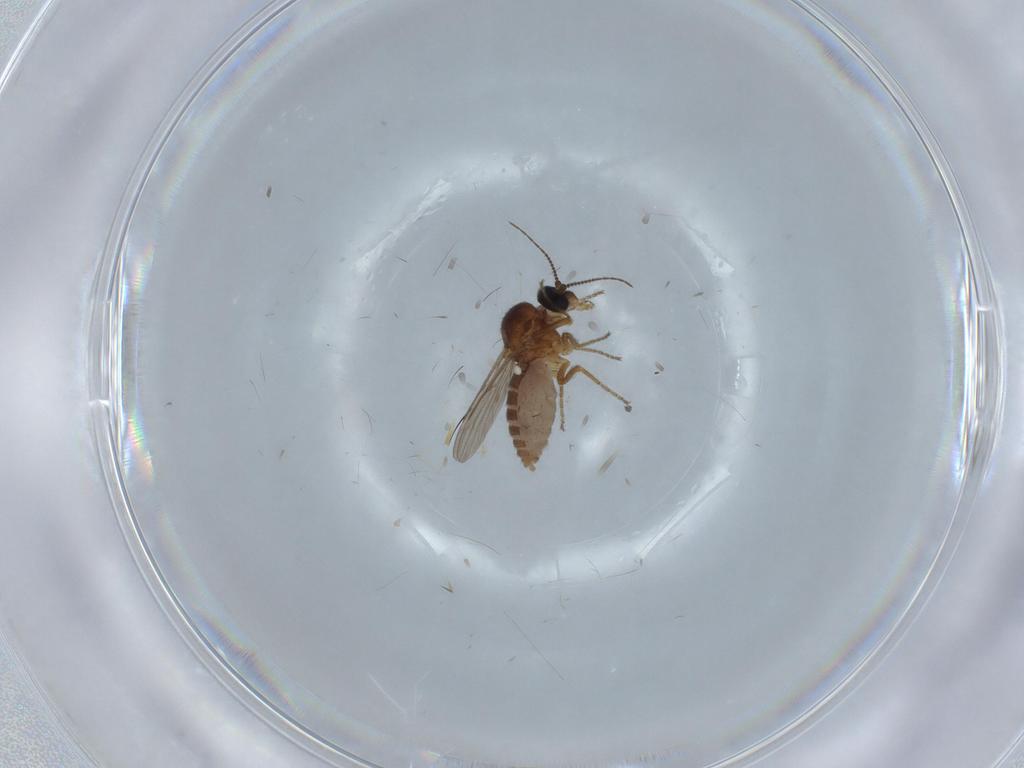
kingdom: Animalia
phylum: Arthropoda
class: Insecta
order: Diptera
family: Ceratopogonidae
